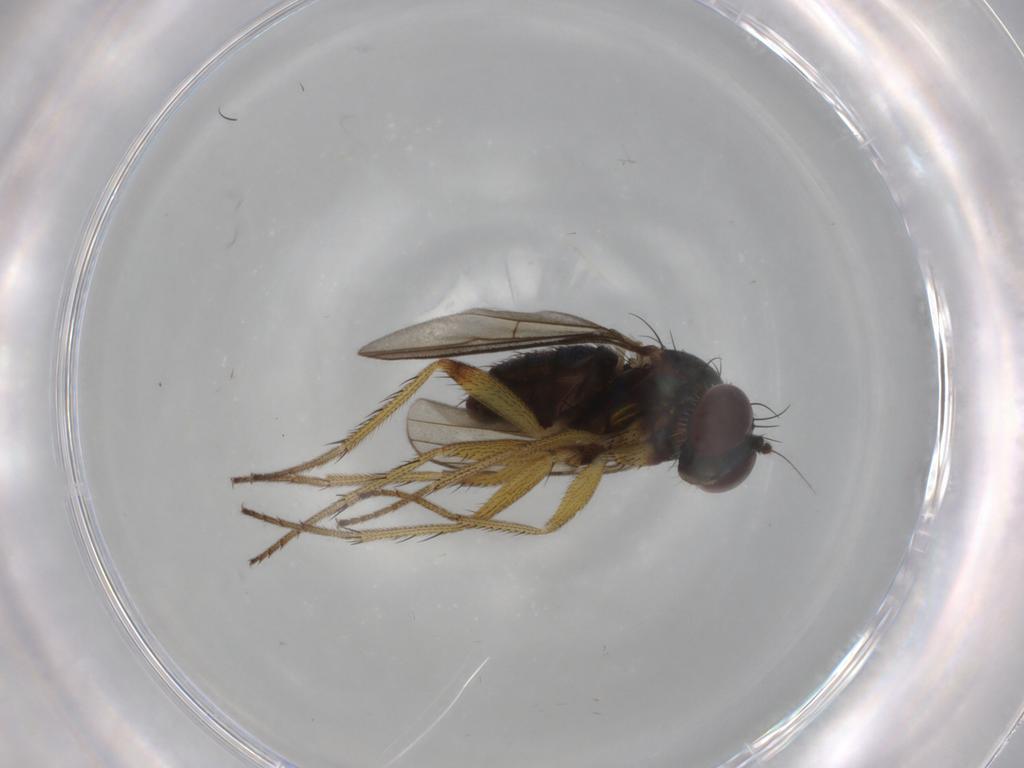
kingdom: Animalia
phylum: Arthropoda
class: Insecta
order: Diptera
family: Dolichopodidae
